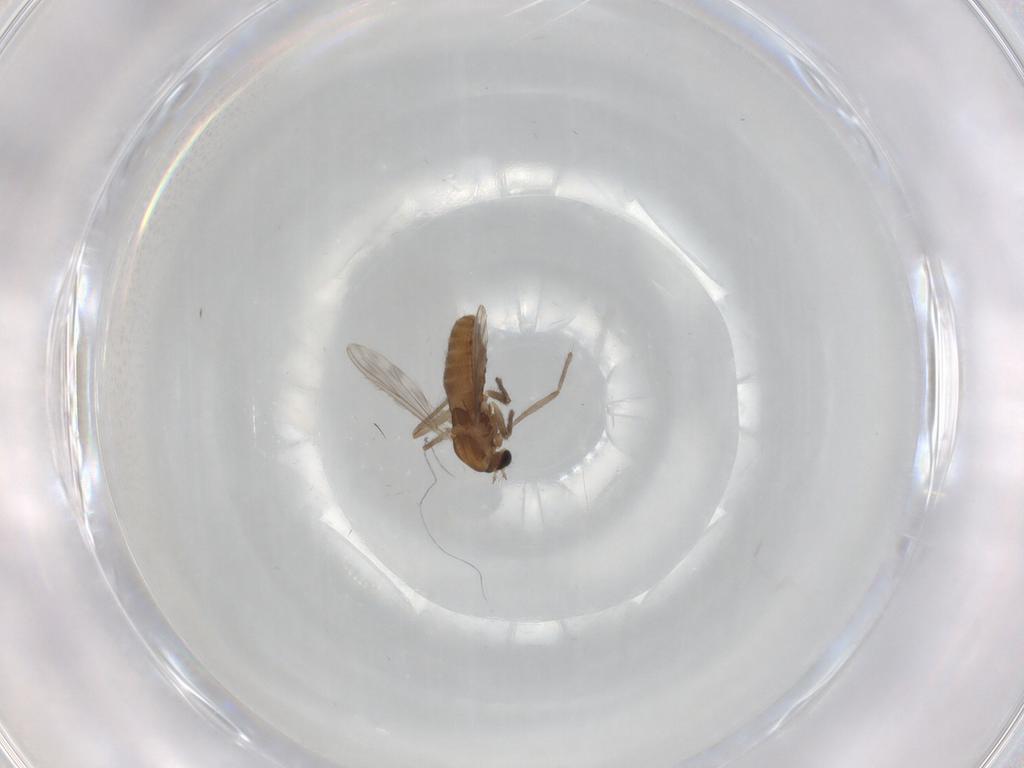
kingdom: Animalia
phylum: Arthropoda
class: Insecta
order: Diptera
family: Chironomidae
